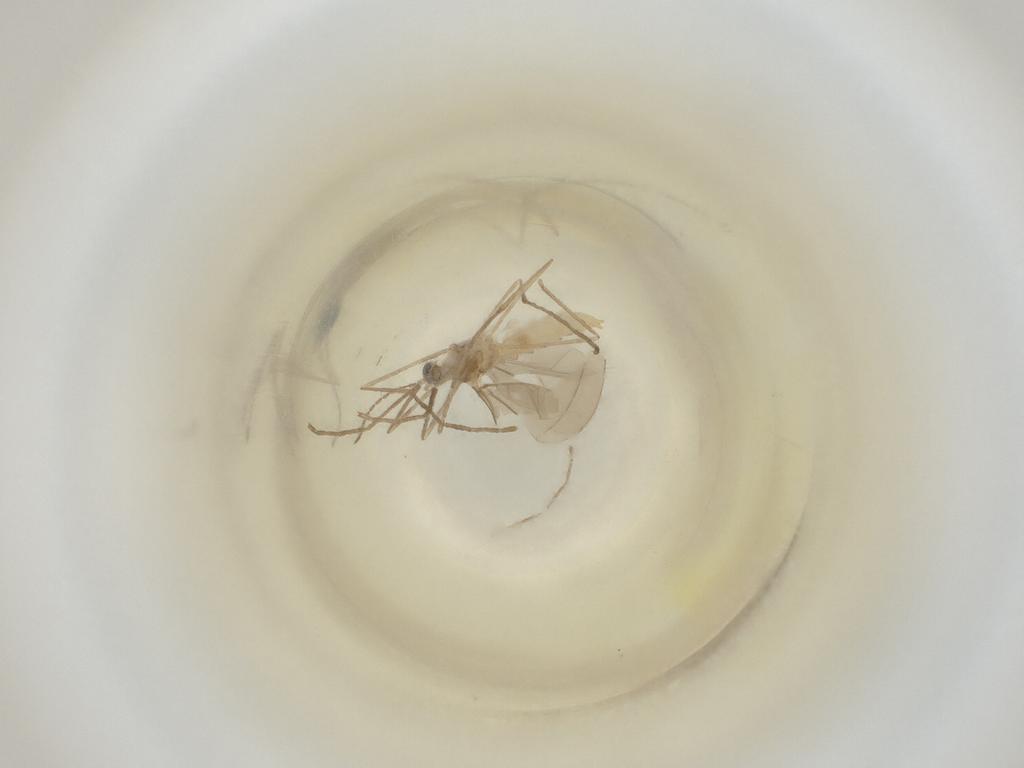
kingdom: Animalia
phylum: Arthropoda
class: Insecta
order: Diptera
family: Cecidomyiidae
